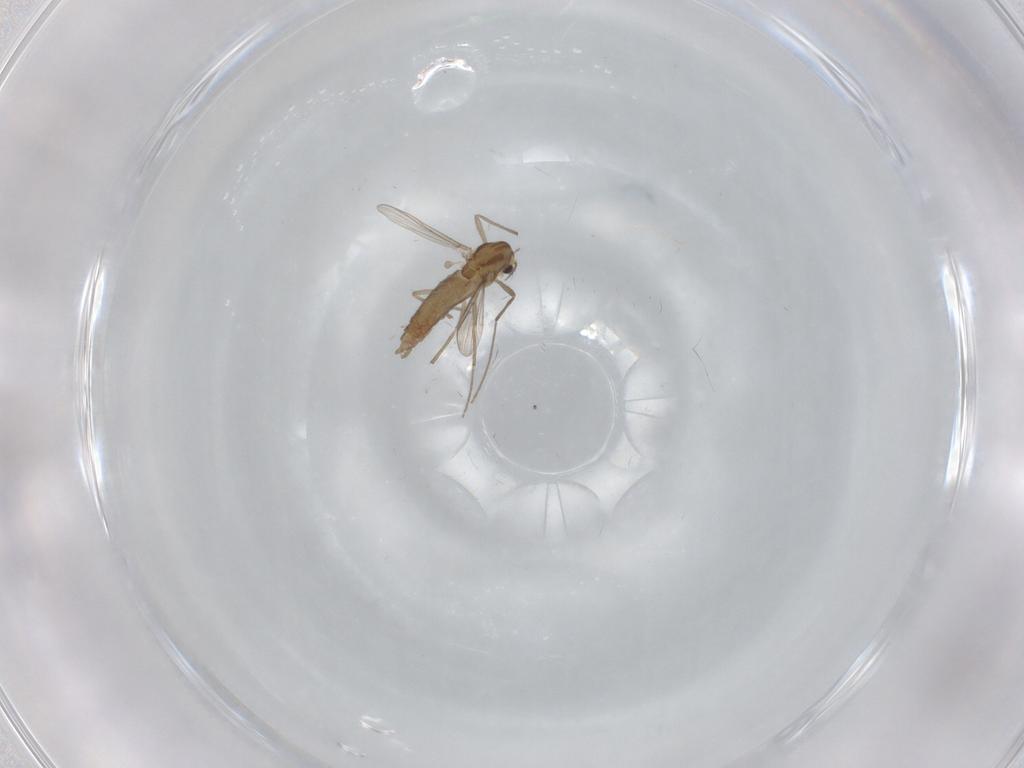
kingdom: Animalia
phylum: Arthropoda
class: Insecta
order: Diptera
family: Chironomidae
